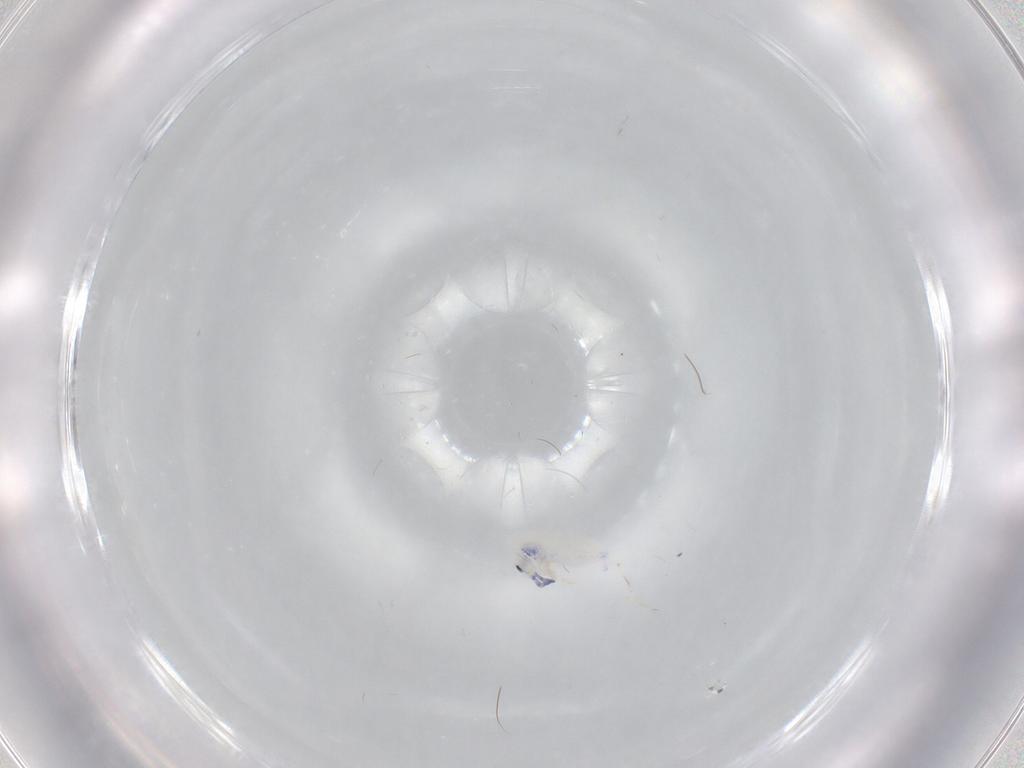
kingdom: Animalia
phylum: Arthropoda
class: Collembola
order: Entomobryomorpha
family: Entomobryidae
